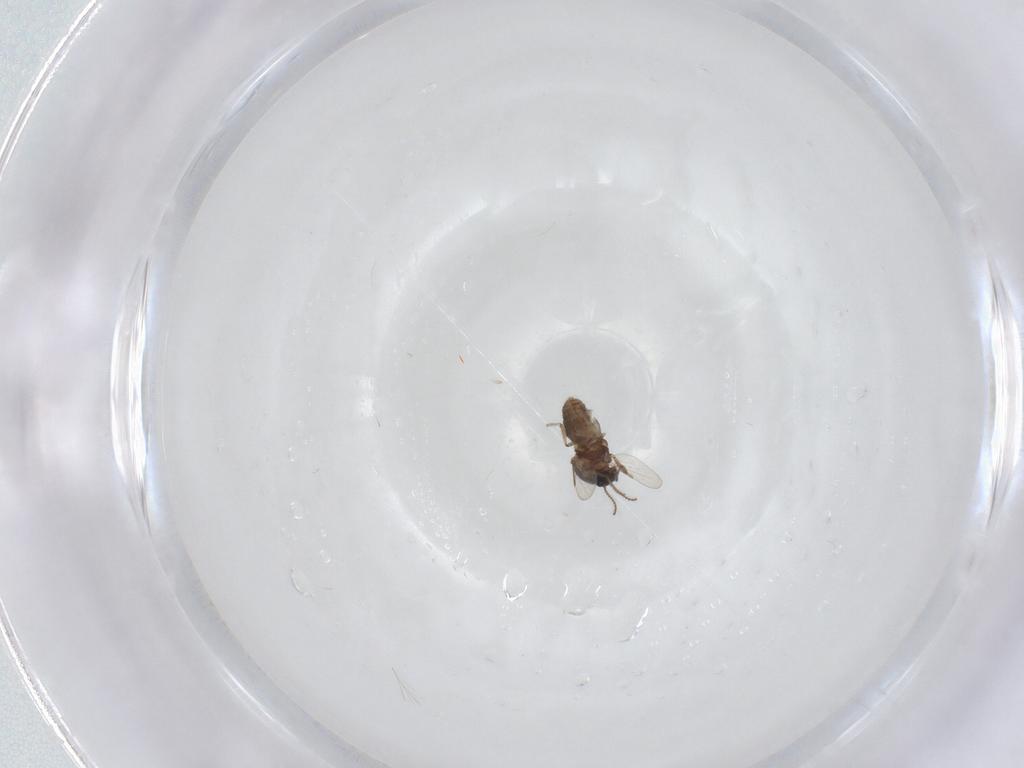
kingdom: Animalia
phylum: Arthropoda
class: Insecta
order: Diptera
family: Ceratopogonidae
